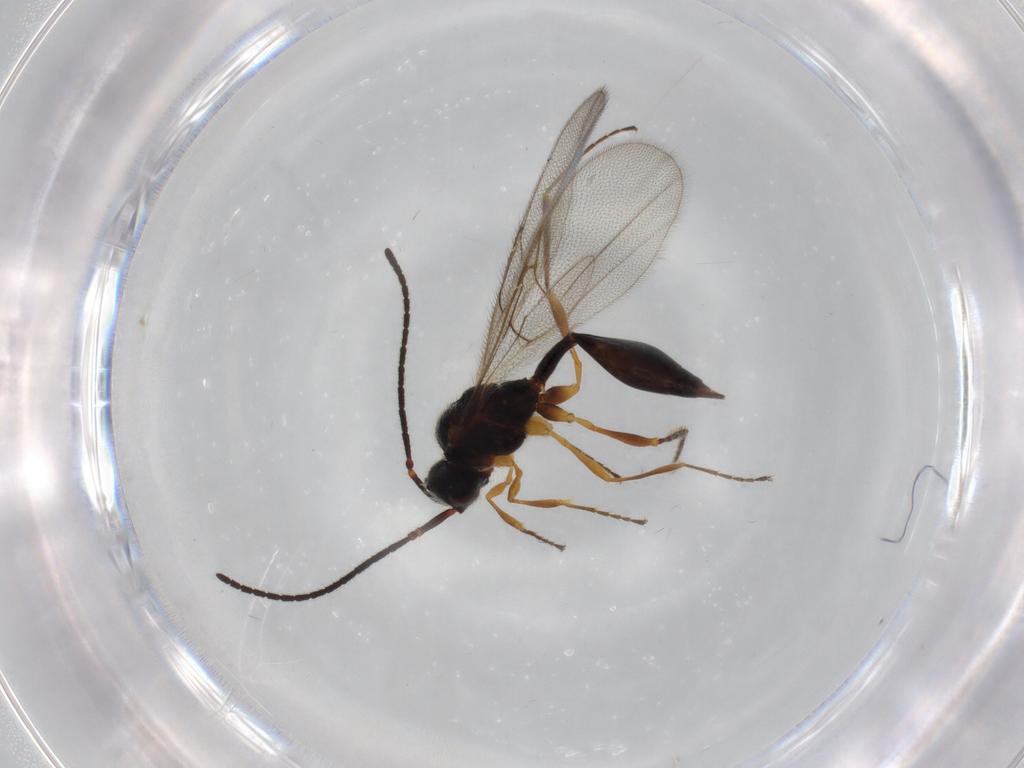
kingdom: Animalia
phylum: Arthropoda
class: Insecta
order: Hymenoptera
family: Diapriidae
